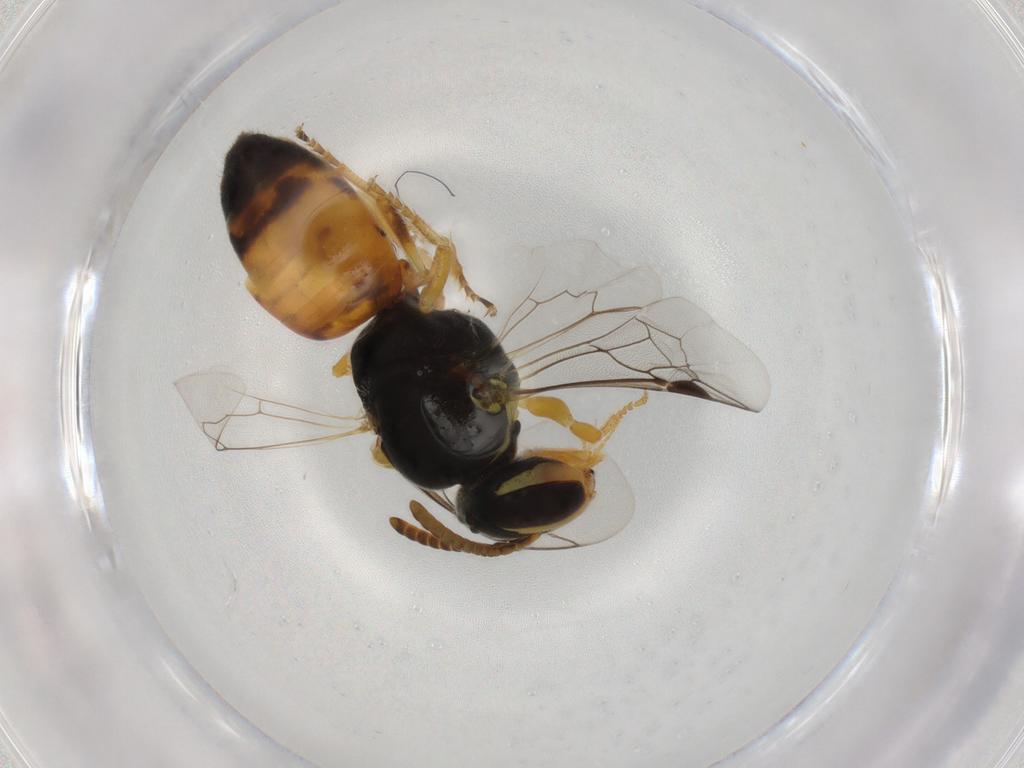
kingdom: Animalia
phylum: Arthropoda
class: Insecta
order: Hymenoptera
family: Colletidae
